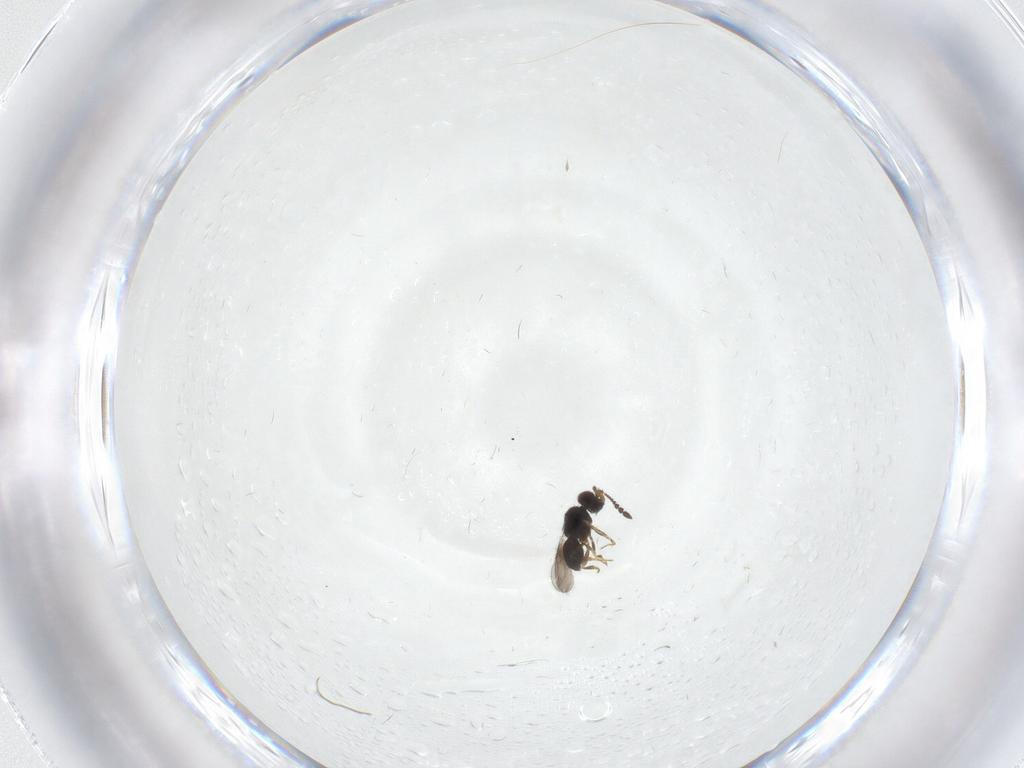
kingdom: Animalia
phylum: Arthropoda
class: Insecta
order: Hymenoptera
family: Ceraphronidae
